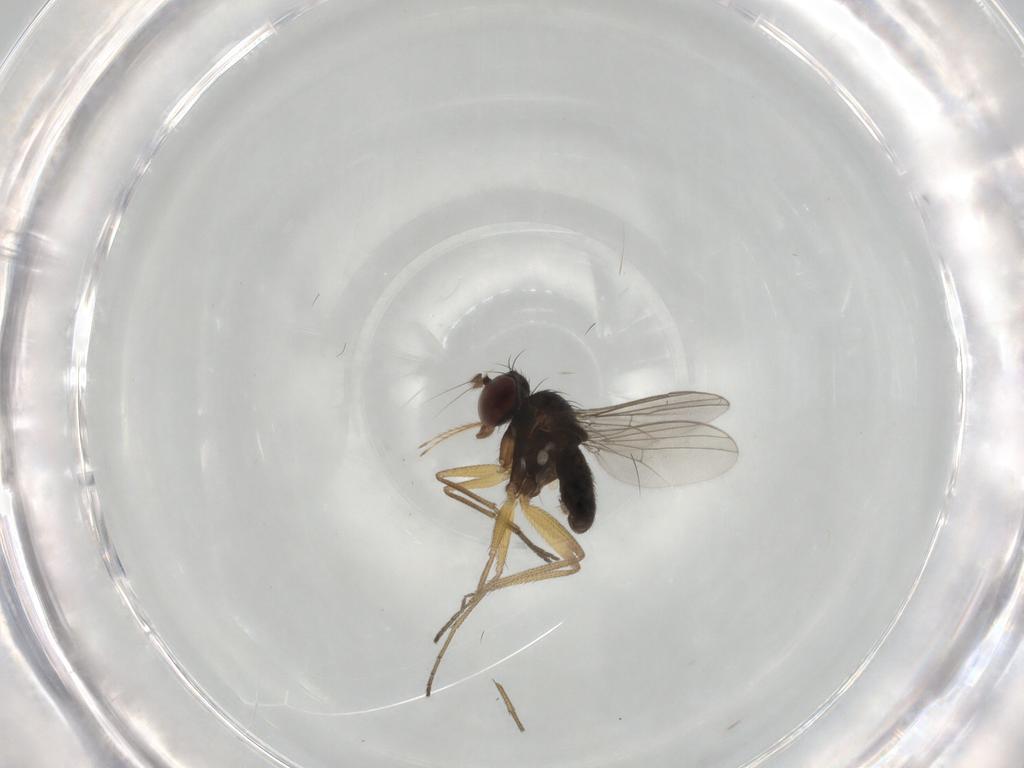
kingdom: Animalia
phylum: Arthropoda
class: Insecta
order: Diptera
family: Dolichopodidae
